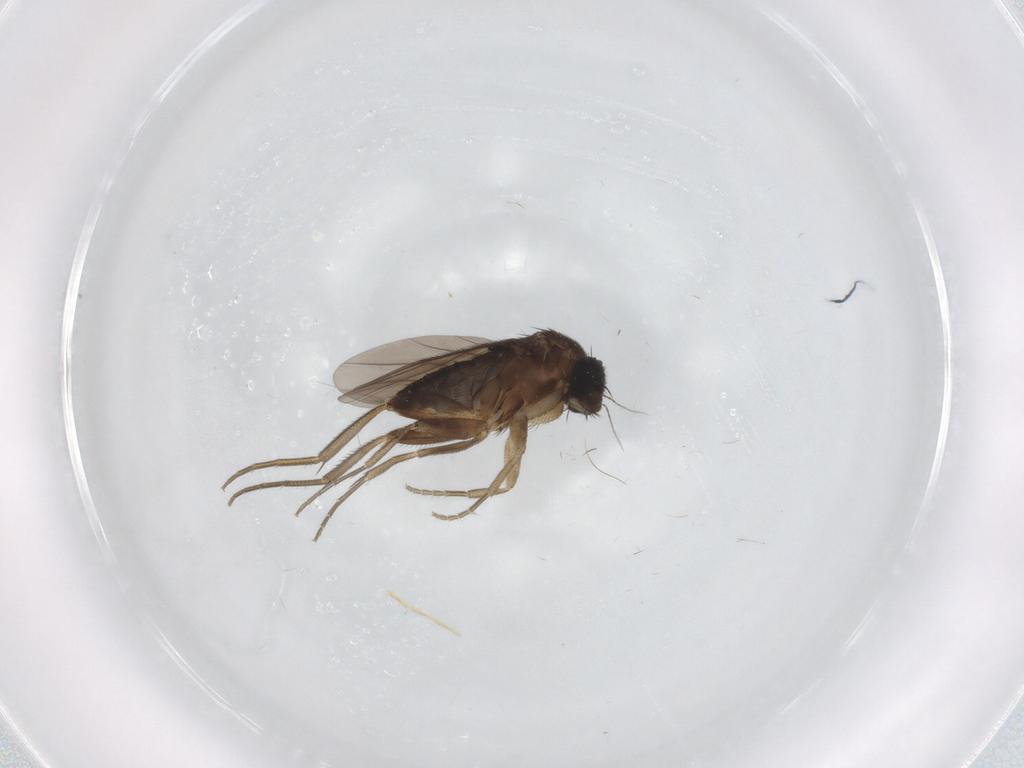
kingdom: Animalia
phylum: Arthropoda
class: Insecta
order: Diptera
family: Phoridae
